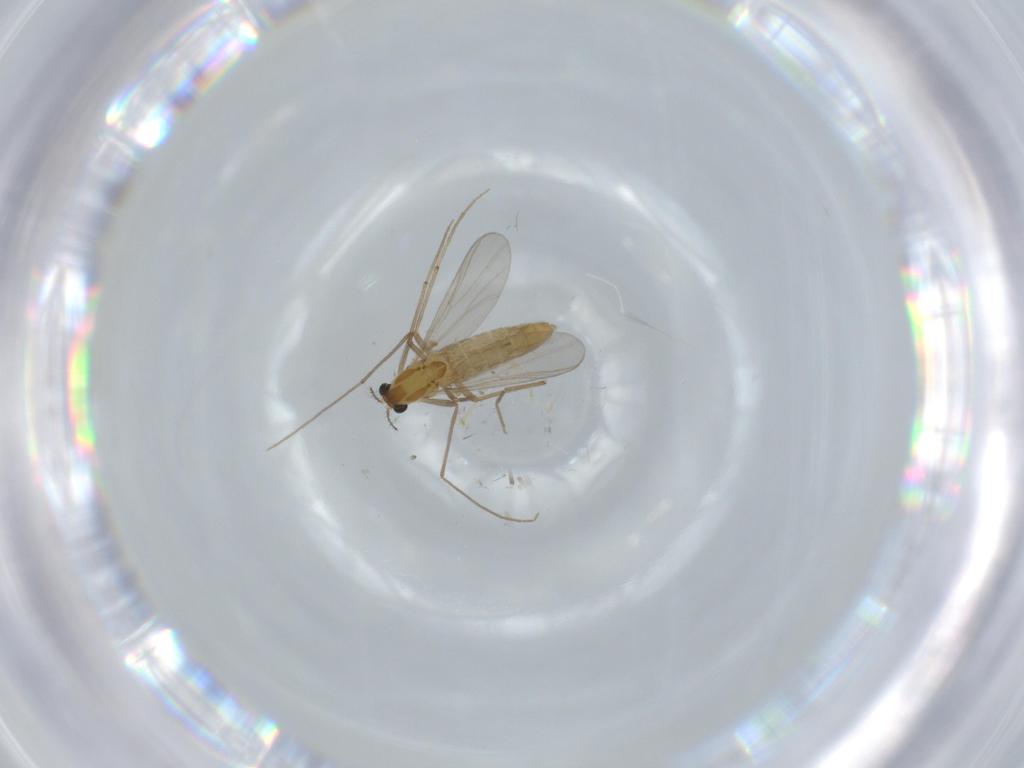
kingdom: Animalia
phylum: Arthropoda
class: Insecta
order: Diptera
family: Chironomidae
